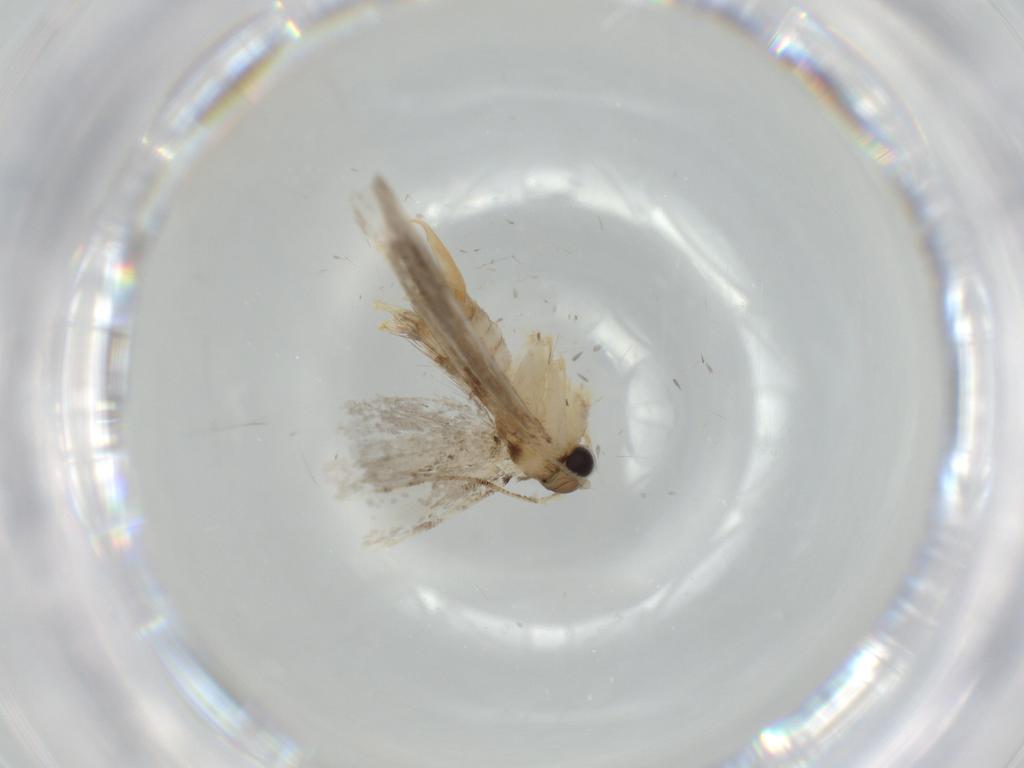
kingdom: Animalia
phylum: Arthropoda
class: Insecta
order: Lepidoptera
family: Tineidae
